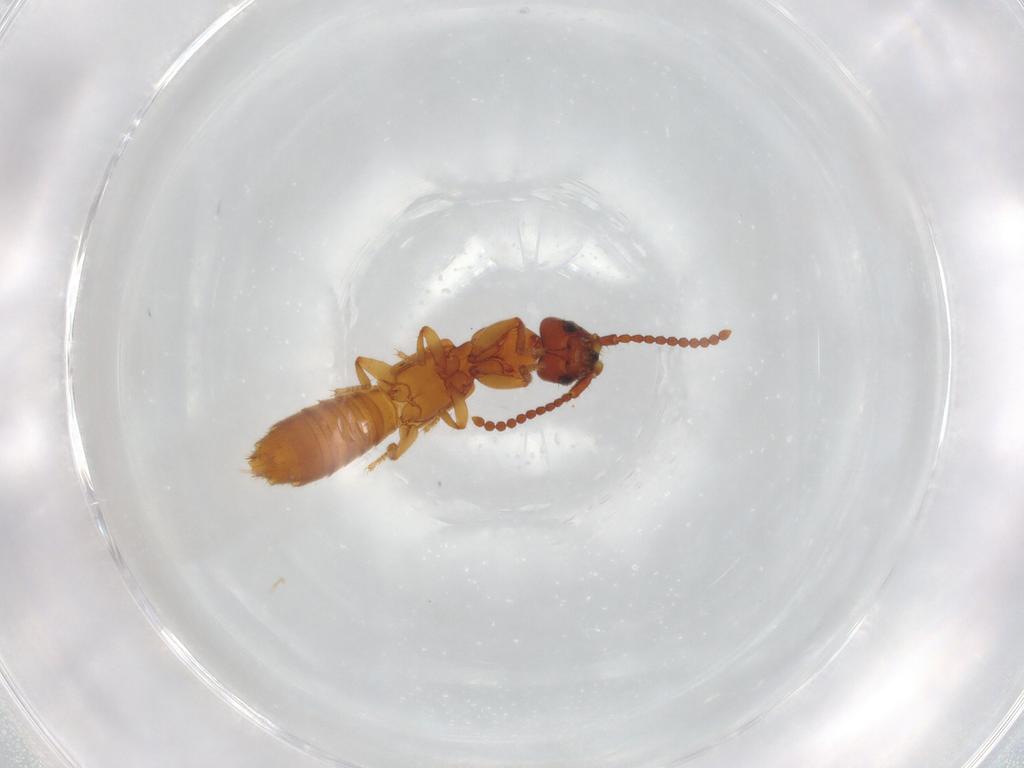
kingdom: Animalia
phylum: Arthropoda
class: Insecta
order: Coleoptera
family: Staphylinidae
